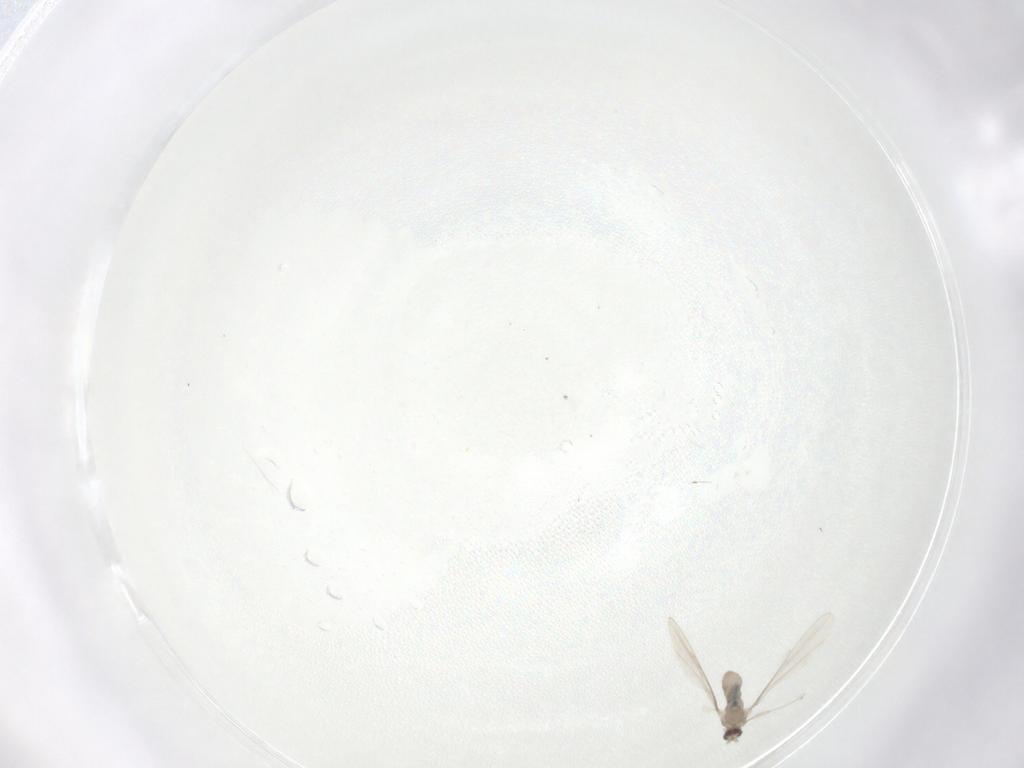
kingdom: Animalia
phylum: Arthropoda
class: Insecta
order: Diptera
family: Cecidomyiidae
